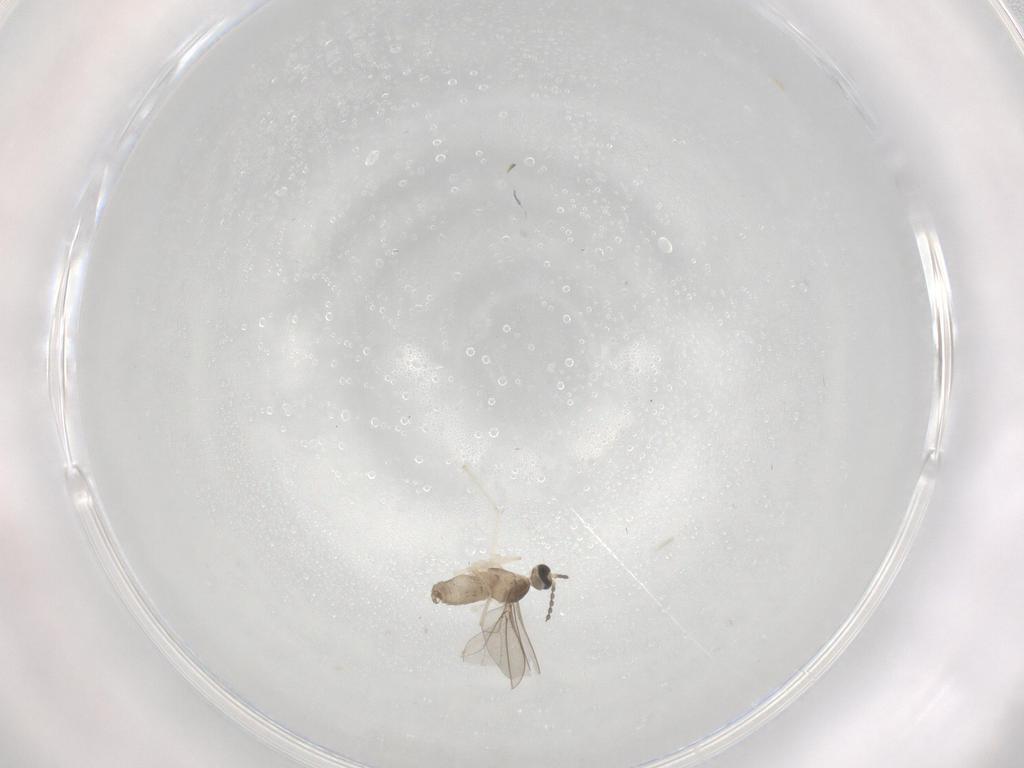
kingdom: Animalia
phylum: Arthropoda
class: Insecta
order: Diptera
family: Cecidomyiidae
